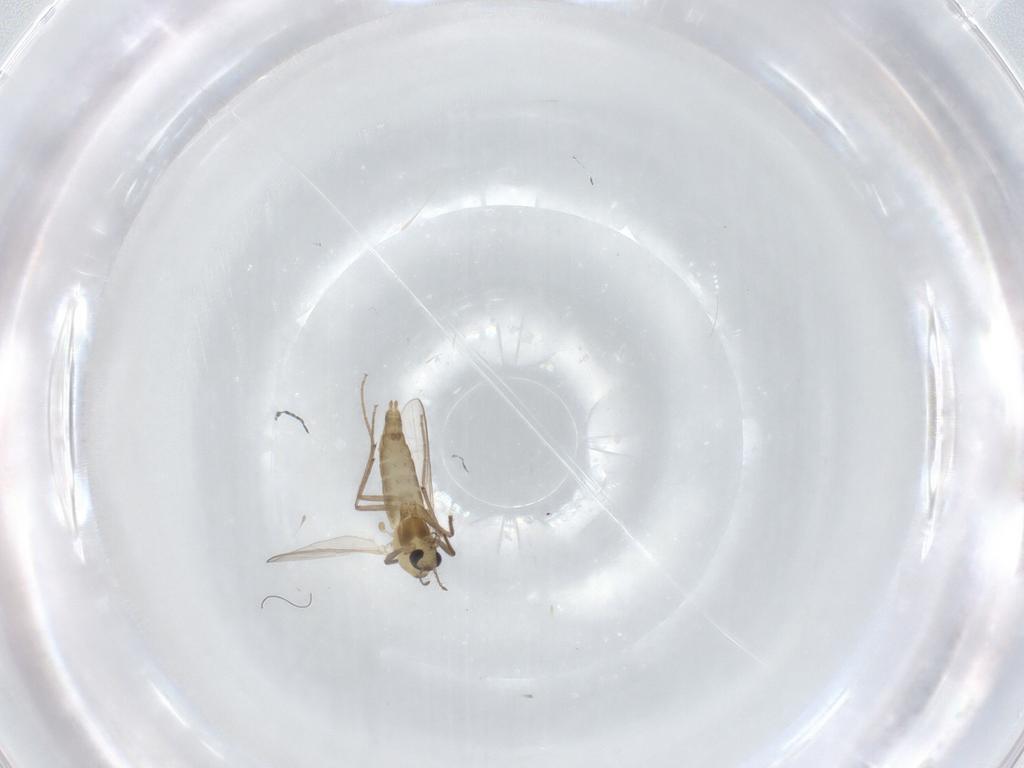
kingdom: Animalia
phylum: Arthropoda
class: Insecta
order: Diptera
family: Chironomidae
